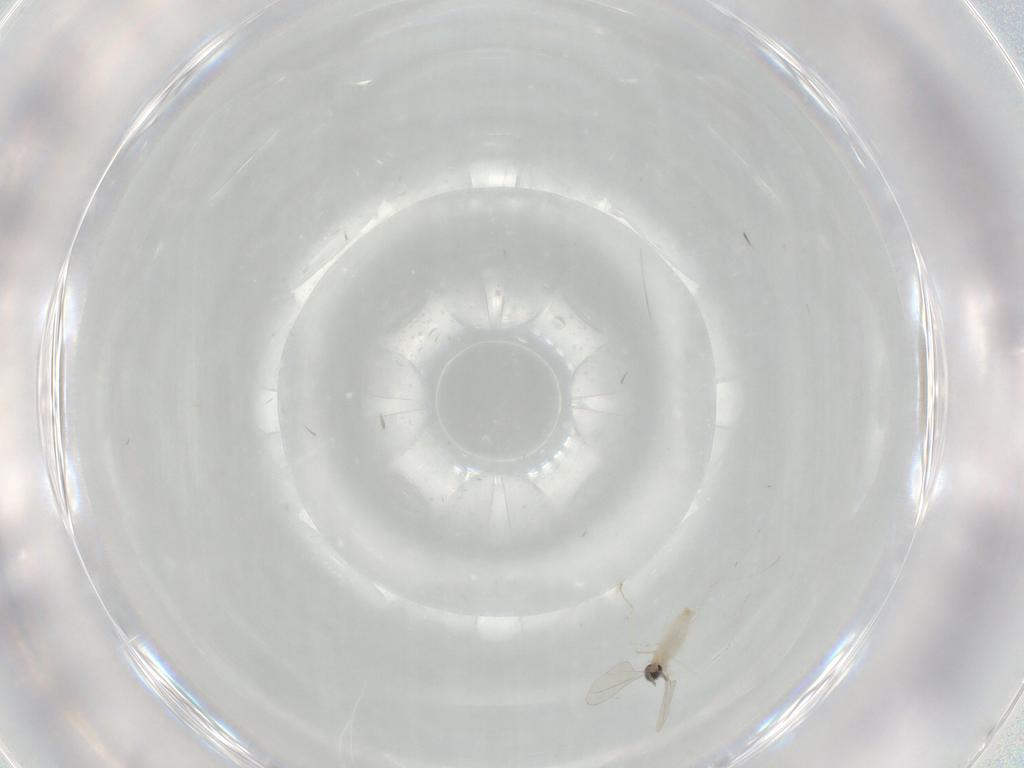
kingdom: Animalia
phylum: Arthropoda
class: Insecta
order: Diptera
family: Cecidomyiidae
